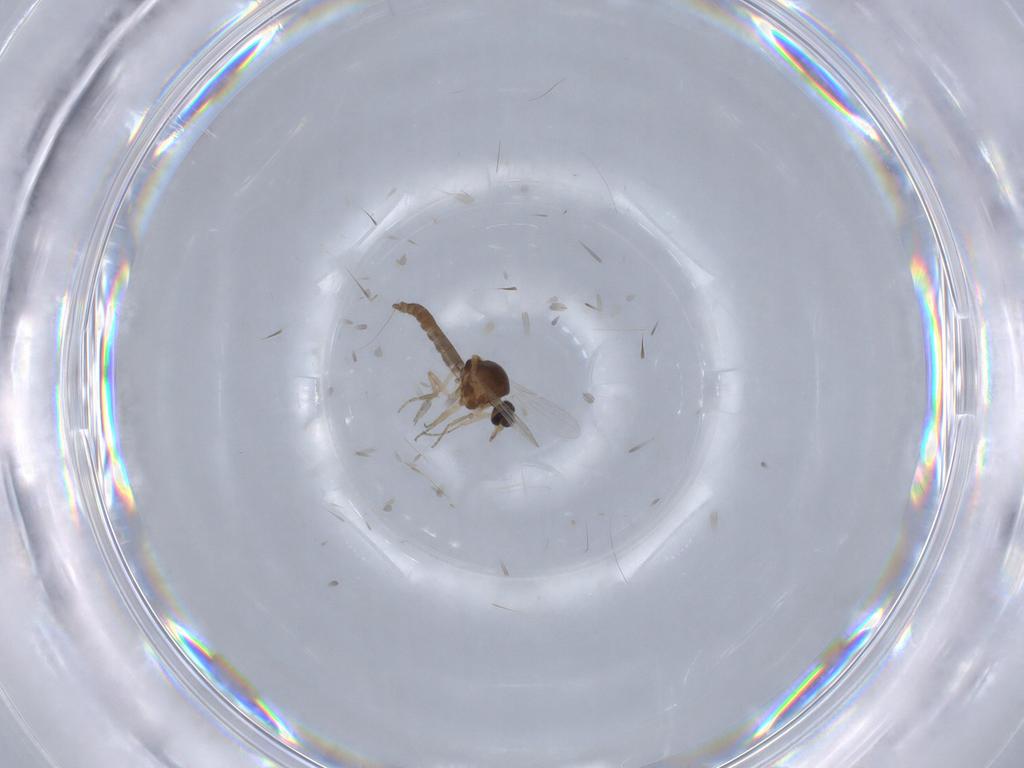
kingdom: Animalia
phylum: Arthropoda
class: Insecta
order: Diptera
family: Ceratopogonidae
